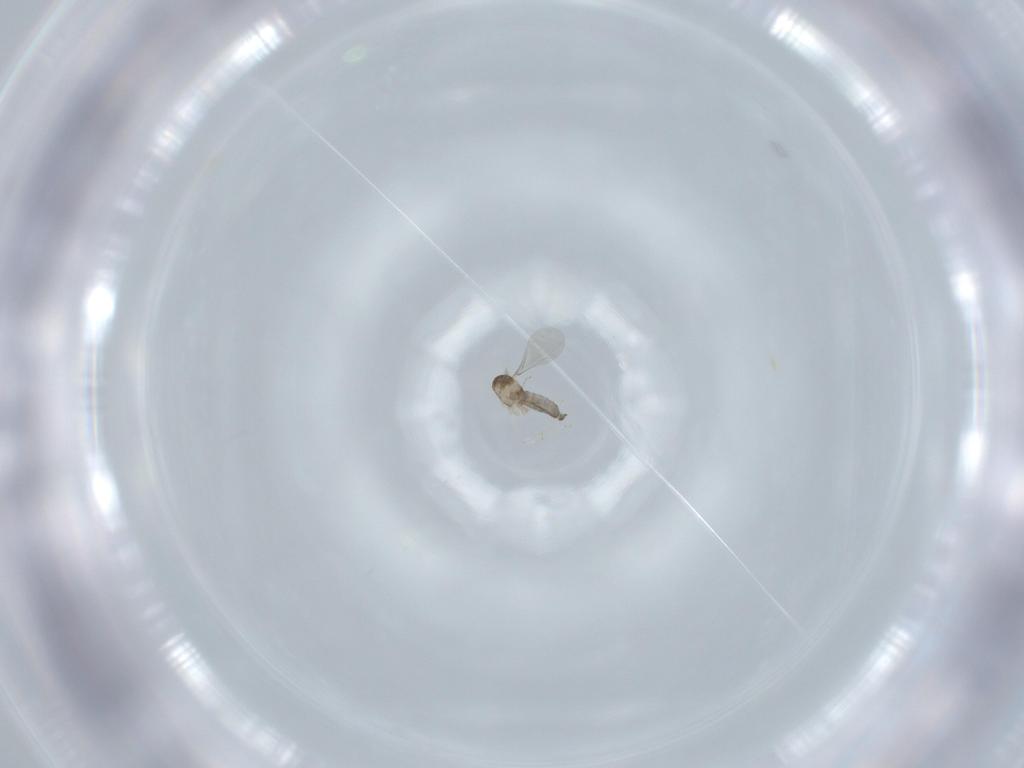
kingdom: Animalia
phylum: Arthropoda
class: Insecta
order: Diptera
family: Cecidomyiidae
